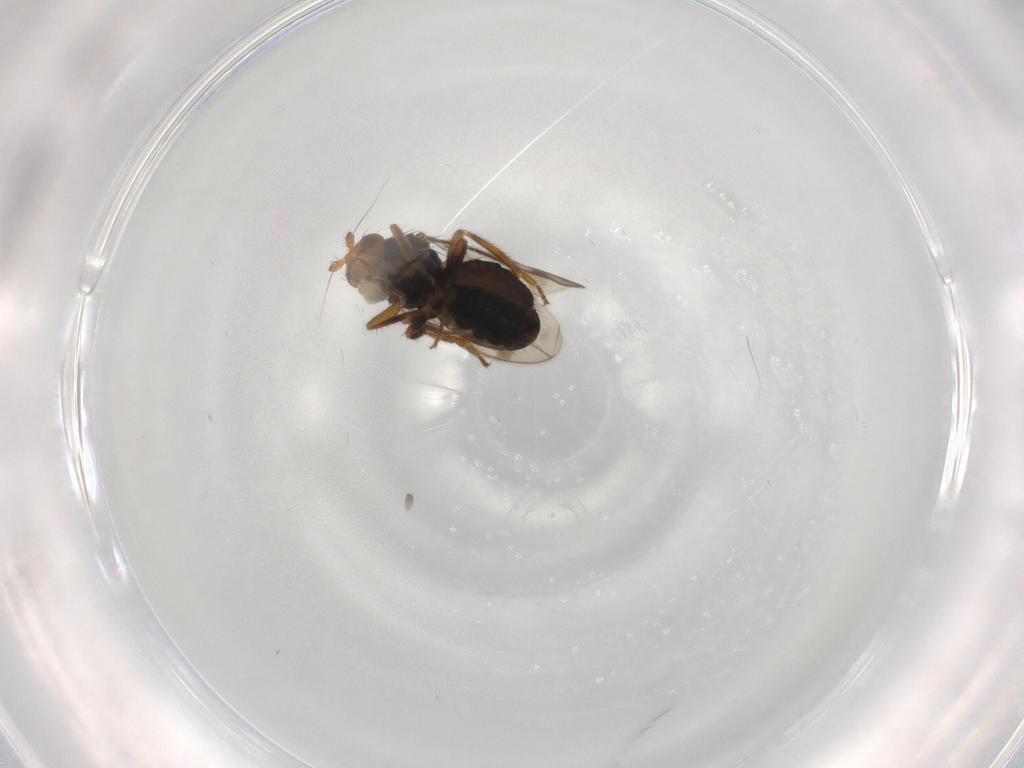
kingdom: Animalia
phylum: Arthropoda
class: Insecta
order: Diptera
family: Sphaeroceridae
